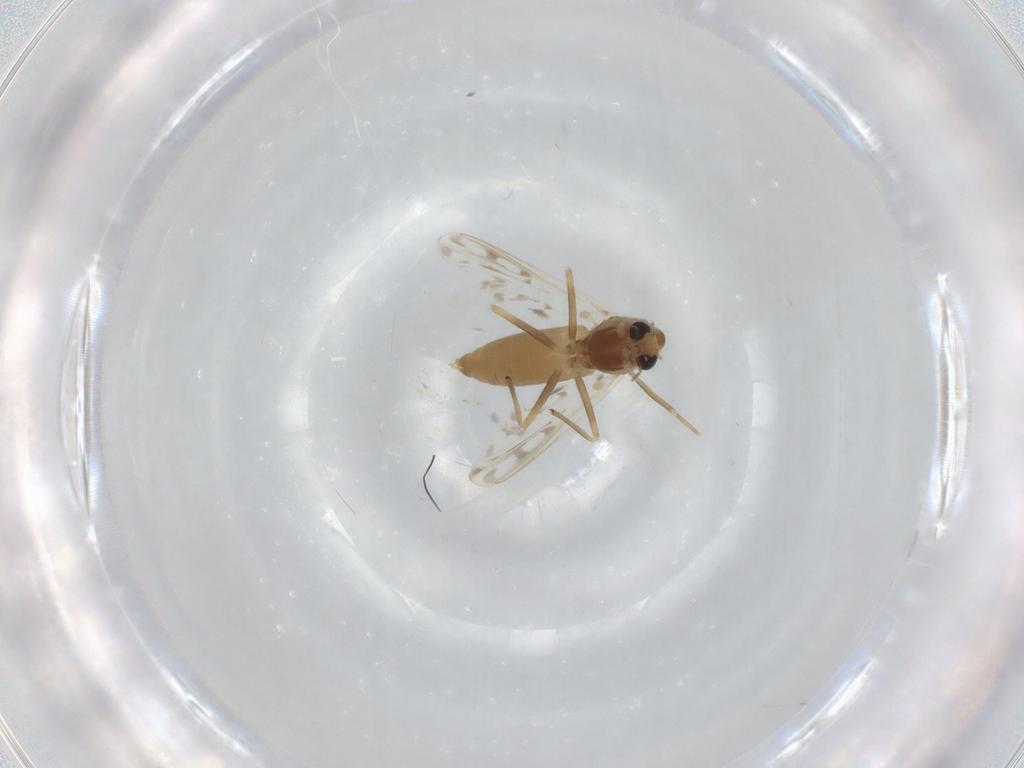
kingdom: Animalia
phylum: Arthropoda
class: Insecta
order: Diptera
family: Chironomidae
